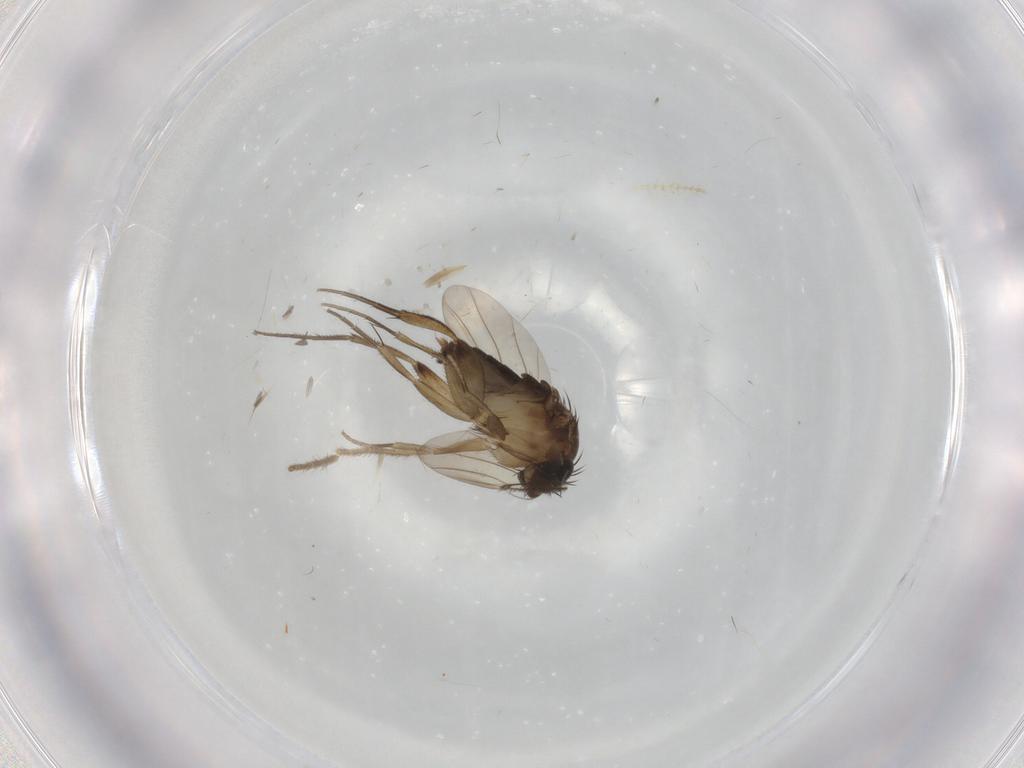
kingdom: Animalia
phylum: Arthropoda
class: Insecta
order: Diptera
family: Phoridae
